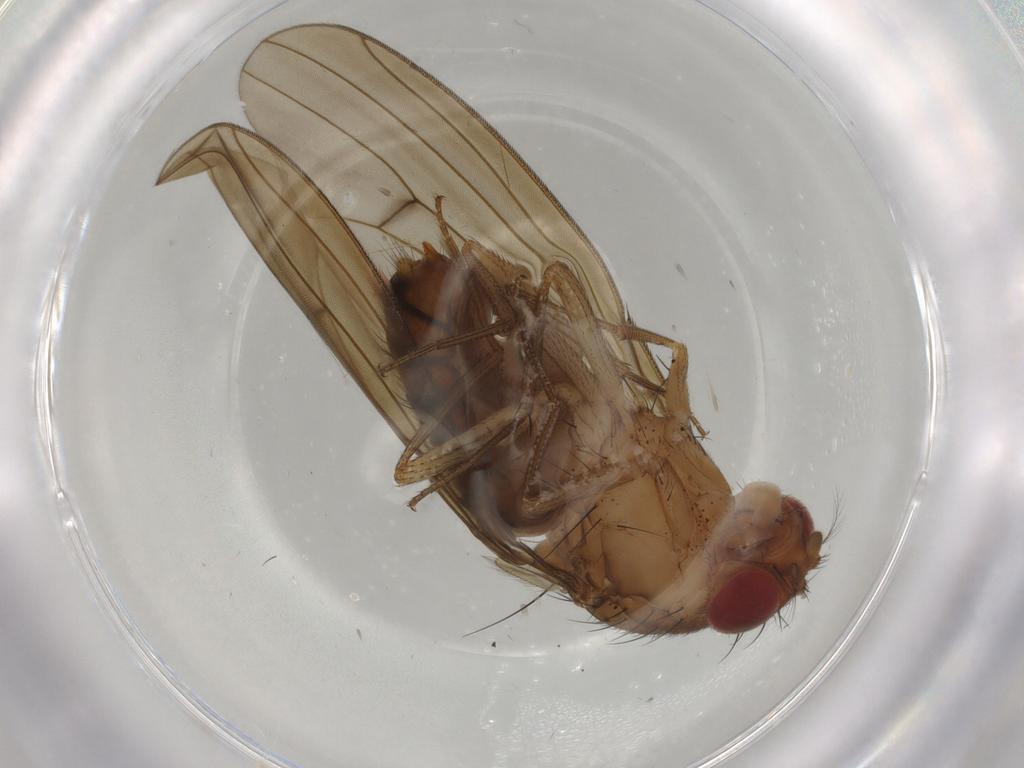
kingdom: Animalia
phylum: Arthropoda
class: Insecta
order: Diptera
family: Drosophilidae
